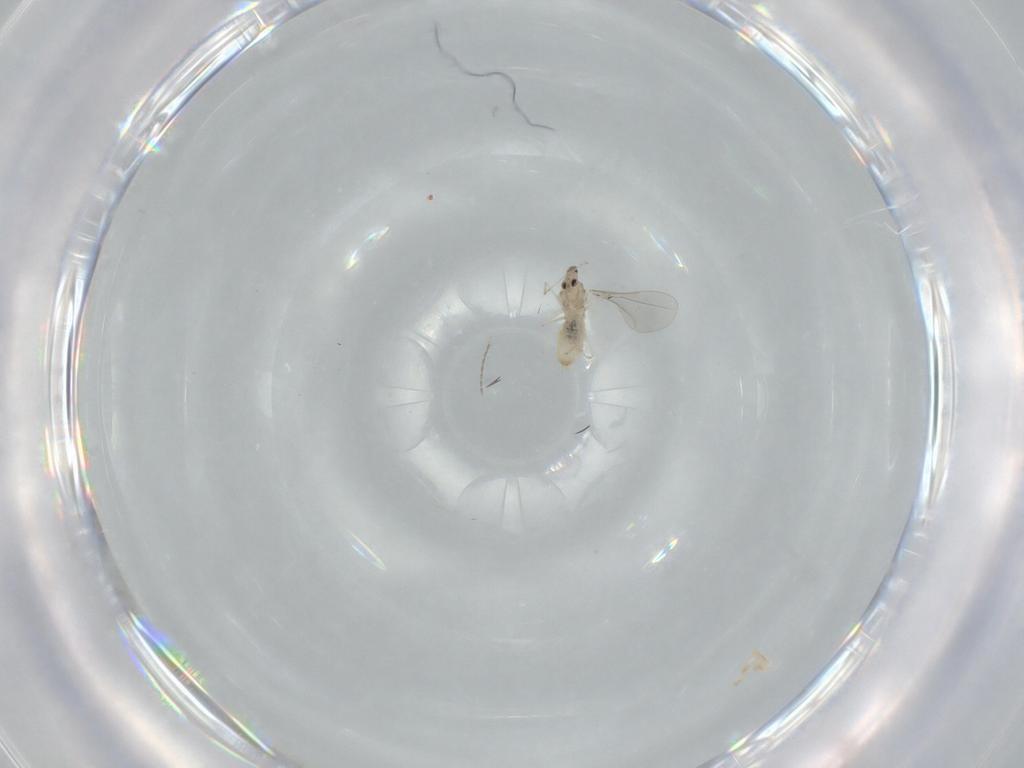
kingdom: Animalia
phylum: Arthropoda
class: Insecta
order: Diptera
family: Cecidomyiidae
